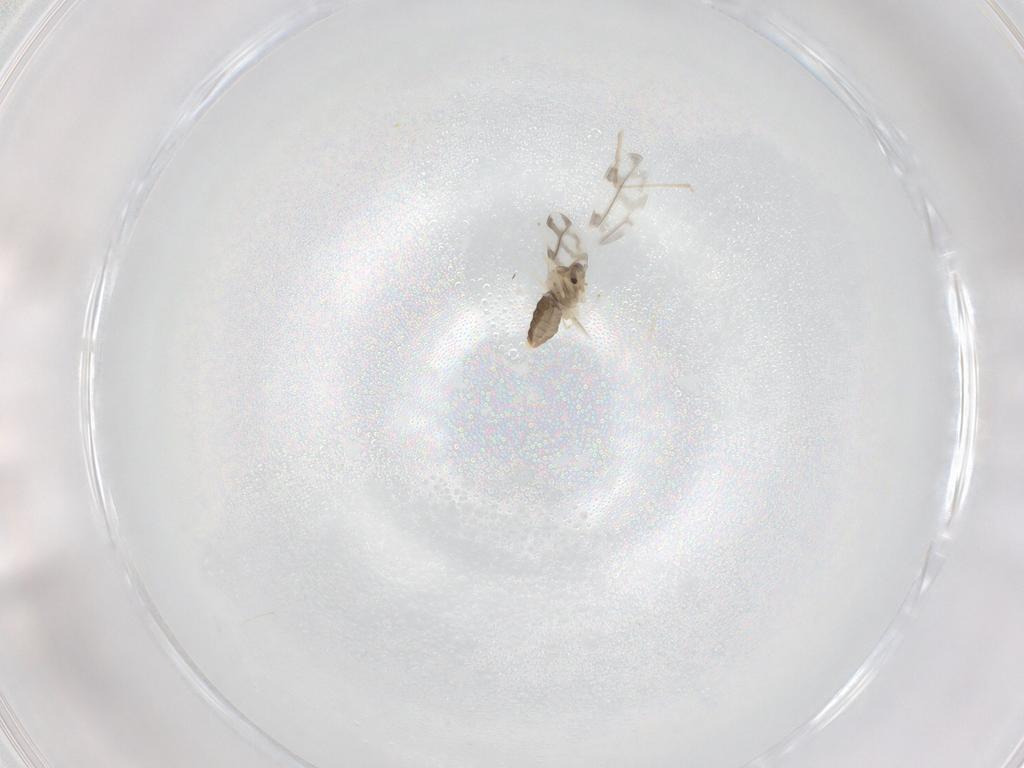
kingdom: Animalia
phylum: Arthropoda
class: Insecta
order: Diptera
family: Cecidomyiidae
